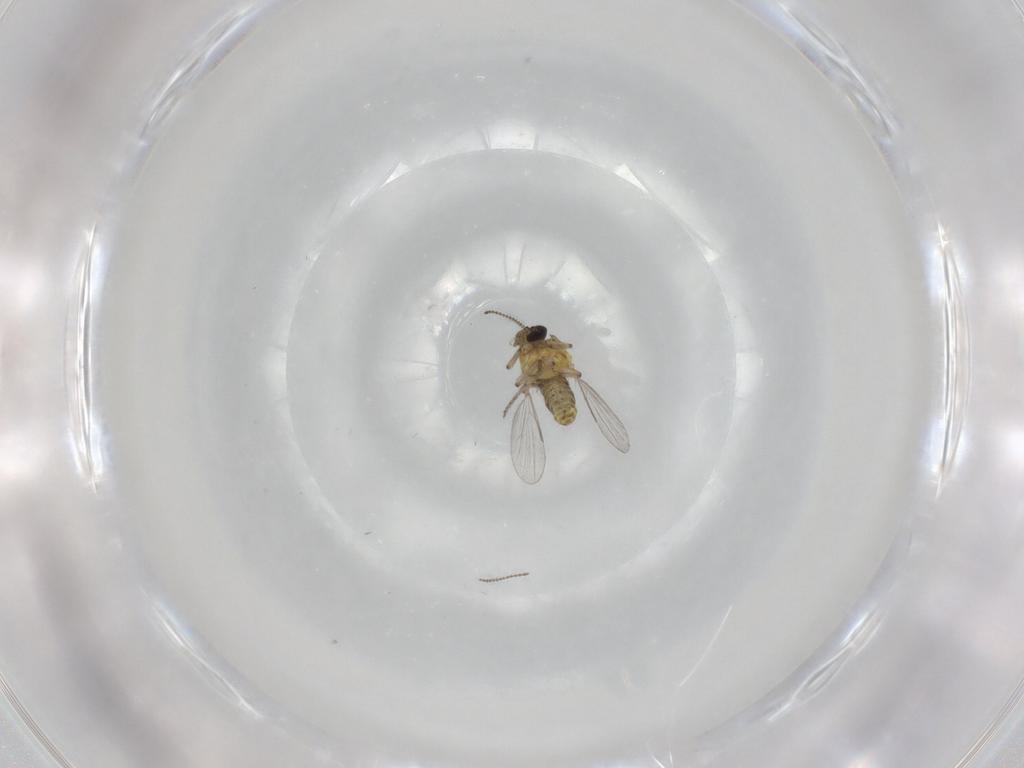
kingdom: Animalia
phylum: Arthropoda
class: Insecta
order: Diptera
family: Ceratopogonidae
